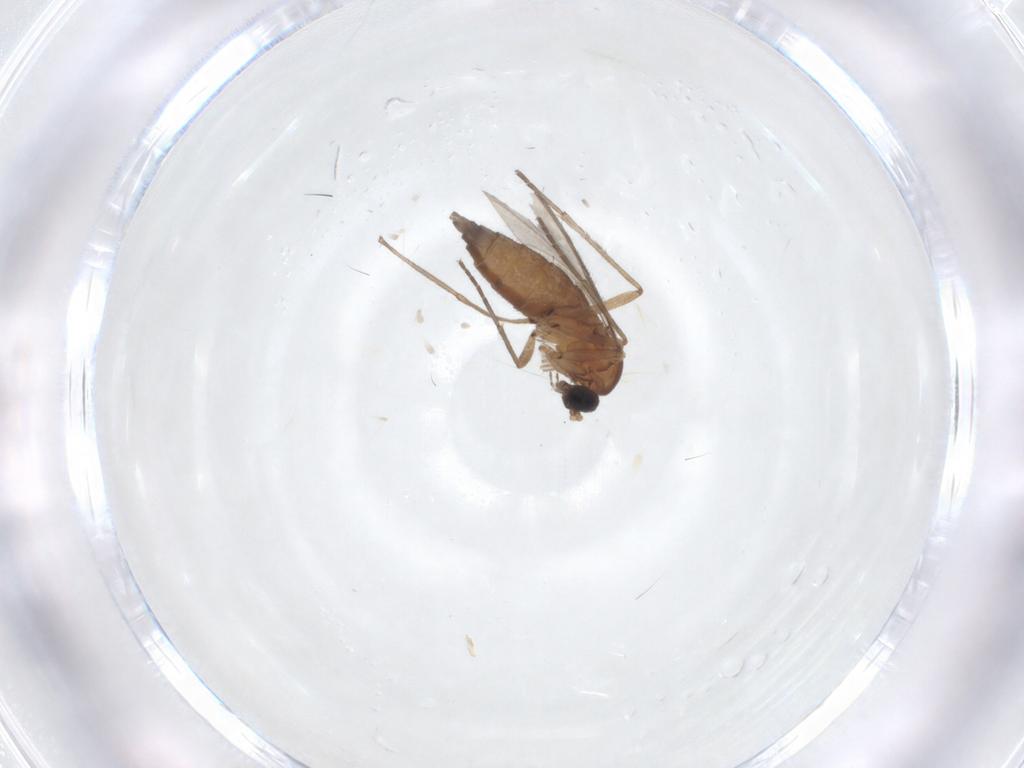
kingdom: Animalia
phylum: Arthropoda
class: Insecta
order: Diptera
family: Sciaridae
